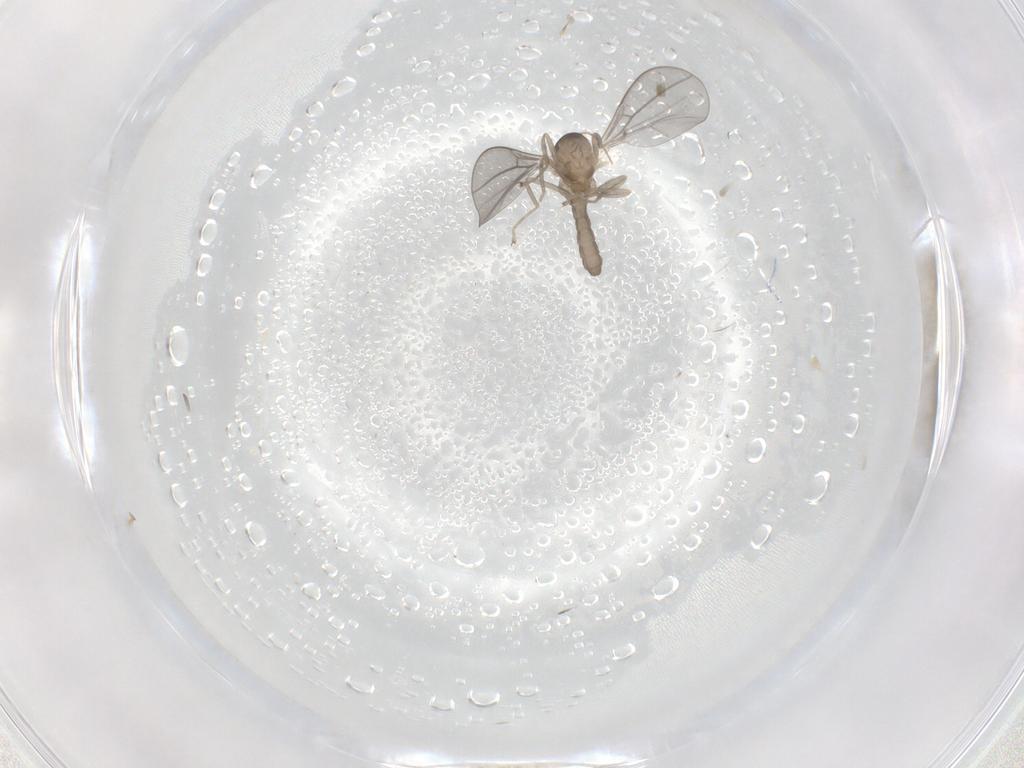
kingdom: Animalia
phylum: Arthropoda
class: Insecta
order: Diptera
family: Cecidomyiidae
